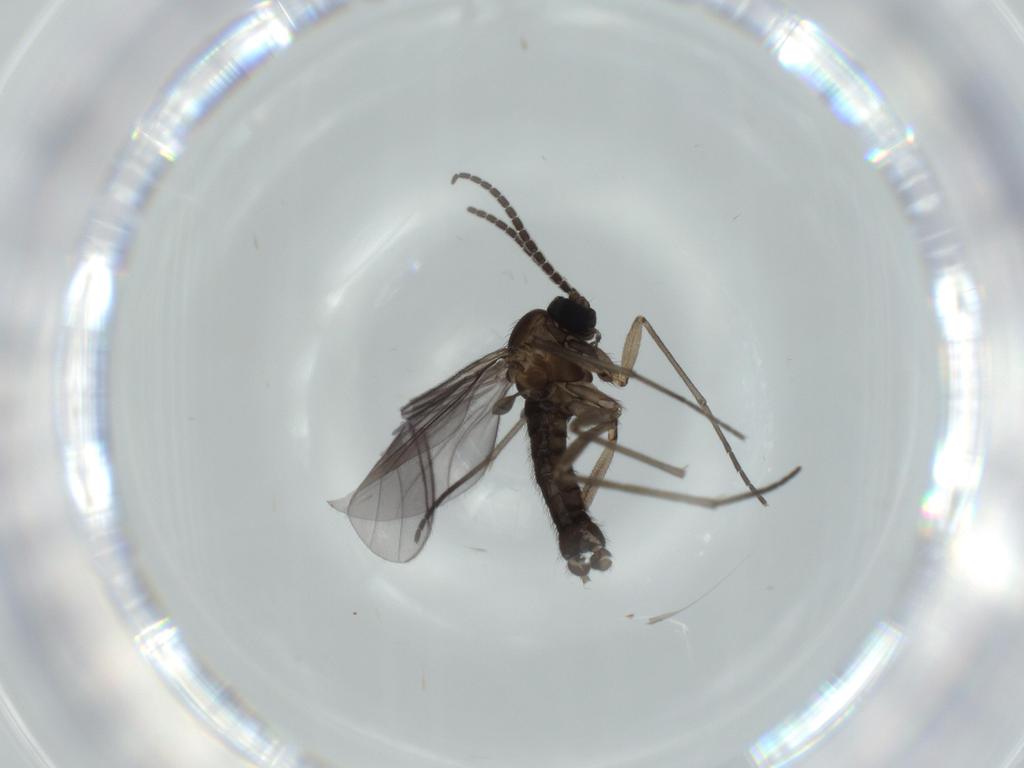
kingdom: Animalia
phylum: Arthropoda
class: Insecta
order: Diptera
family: Sciaridae
